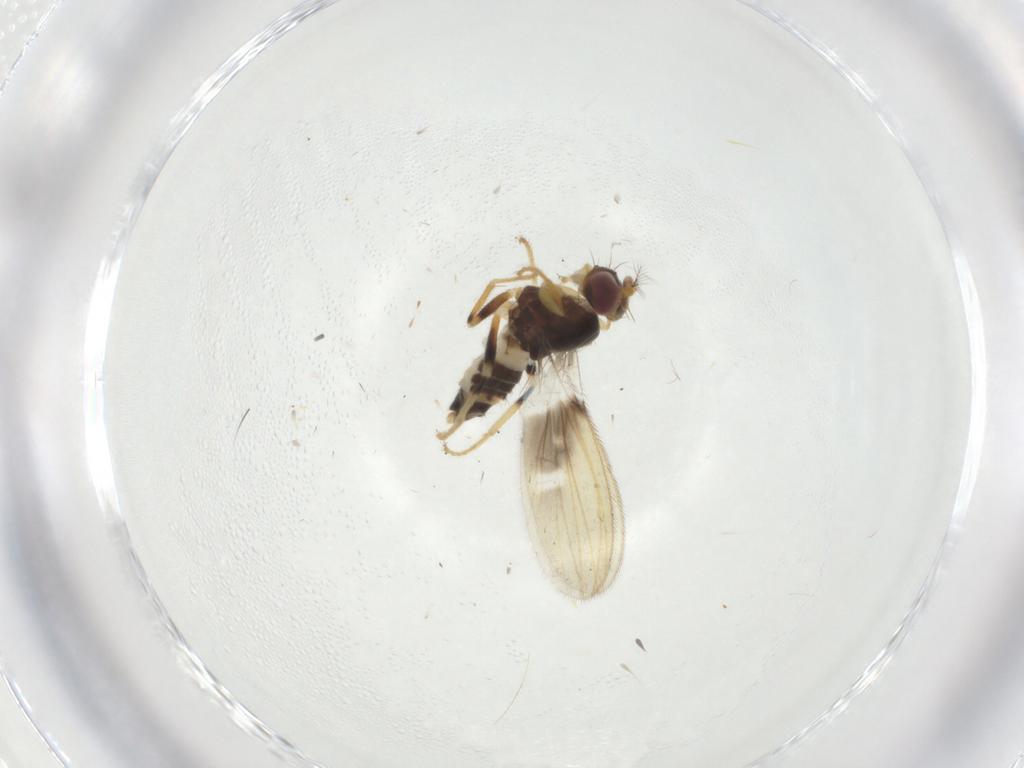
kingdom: Animalia
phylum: Arthropoda
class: Insecta
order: Diptera
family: Periscelididae
